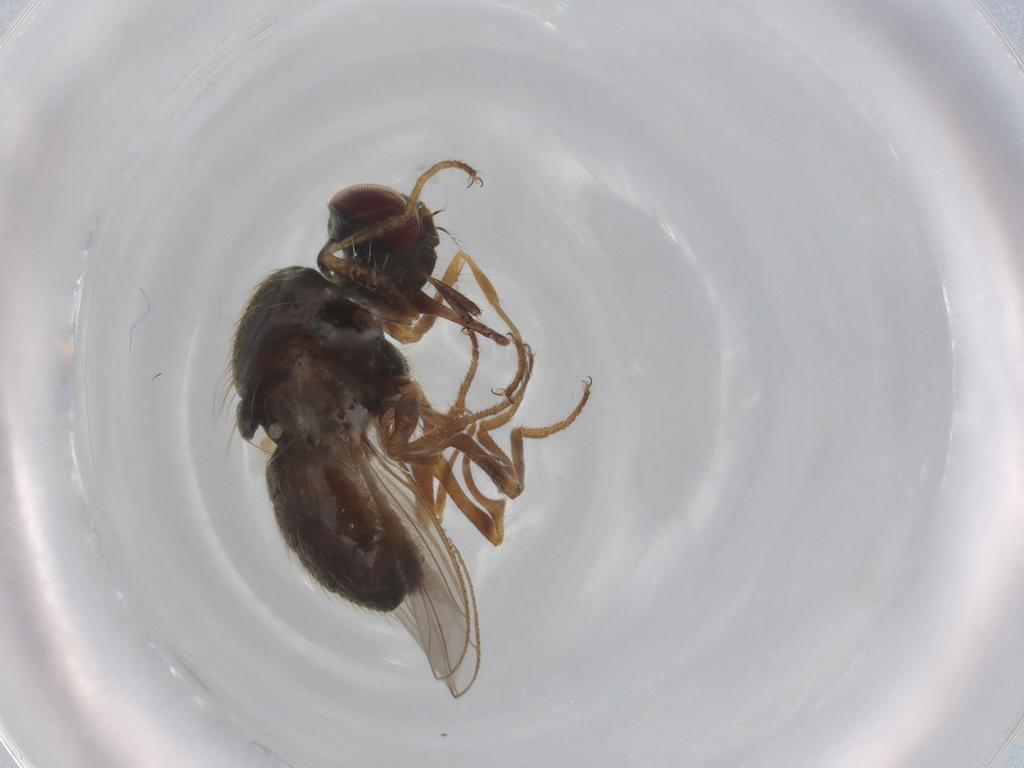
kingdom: Animalia
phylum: Arthropoda
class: Insecta
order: Diptera
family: Muscidae
